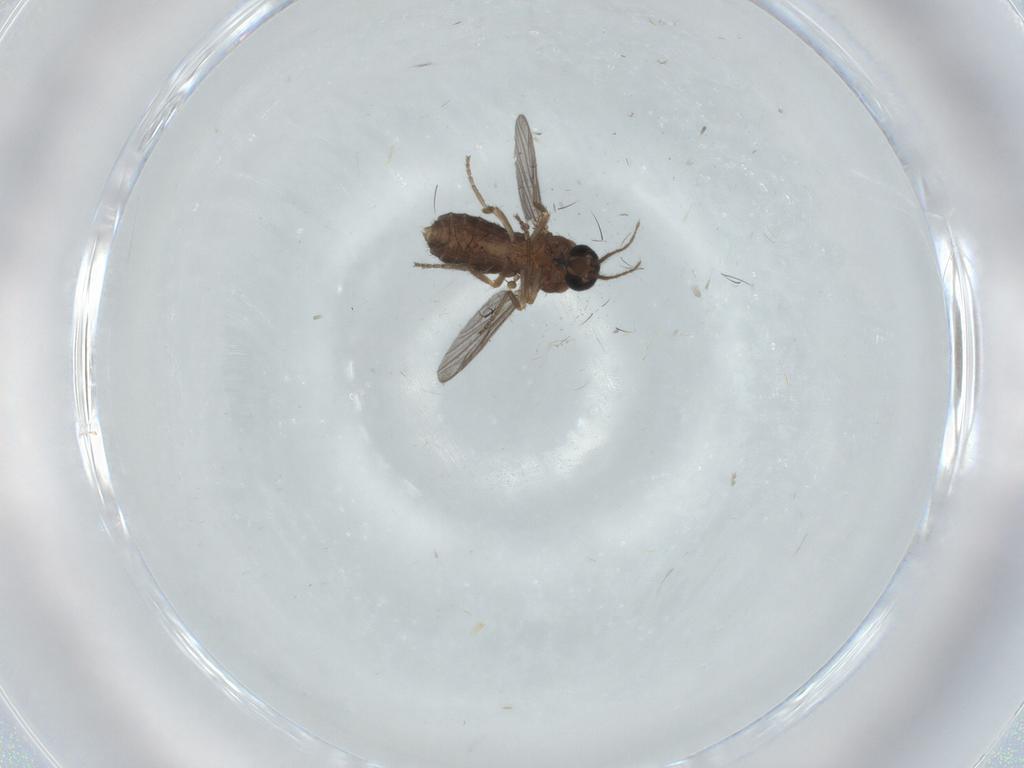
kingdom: Animalia
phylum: Arthropoda
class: Insecta
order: Diptera
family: Ceratopogonidae
